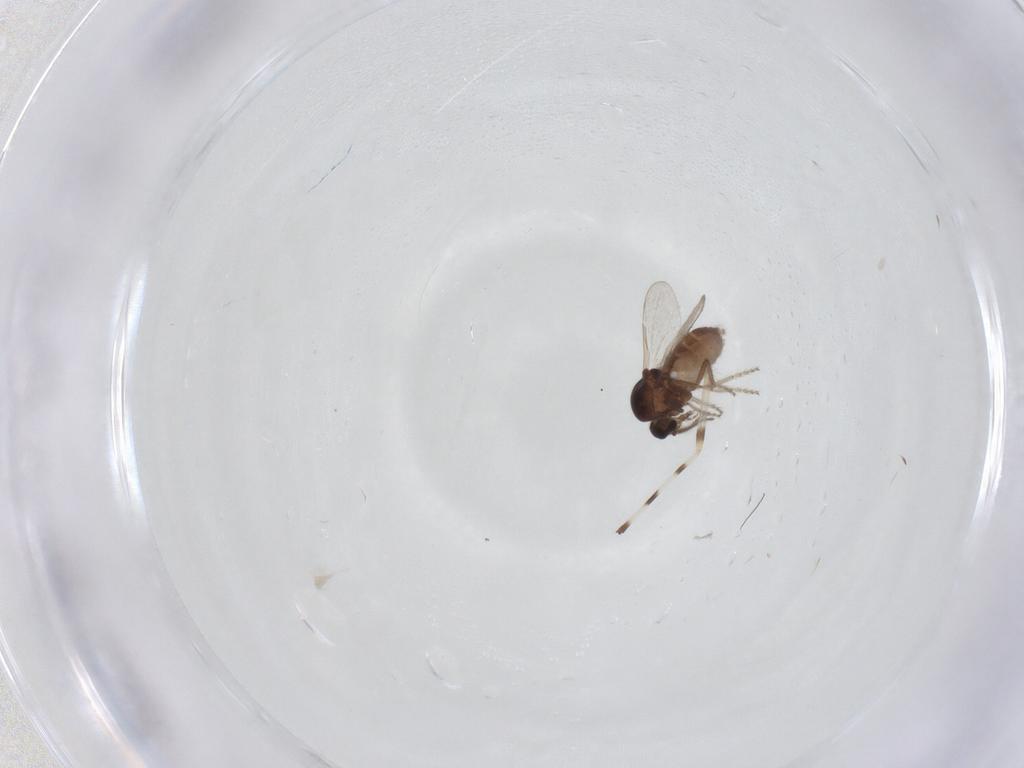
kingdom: Animalia
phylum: Arthropoda
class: Insecta
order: Diptera
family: Ceratopogonidae
